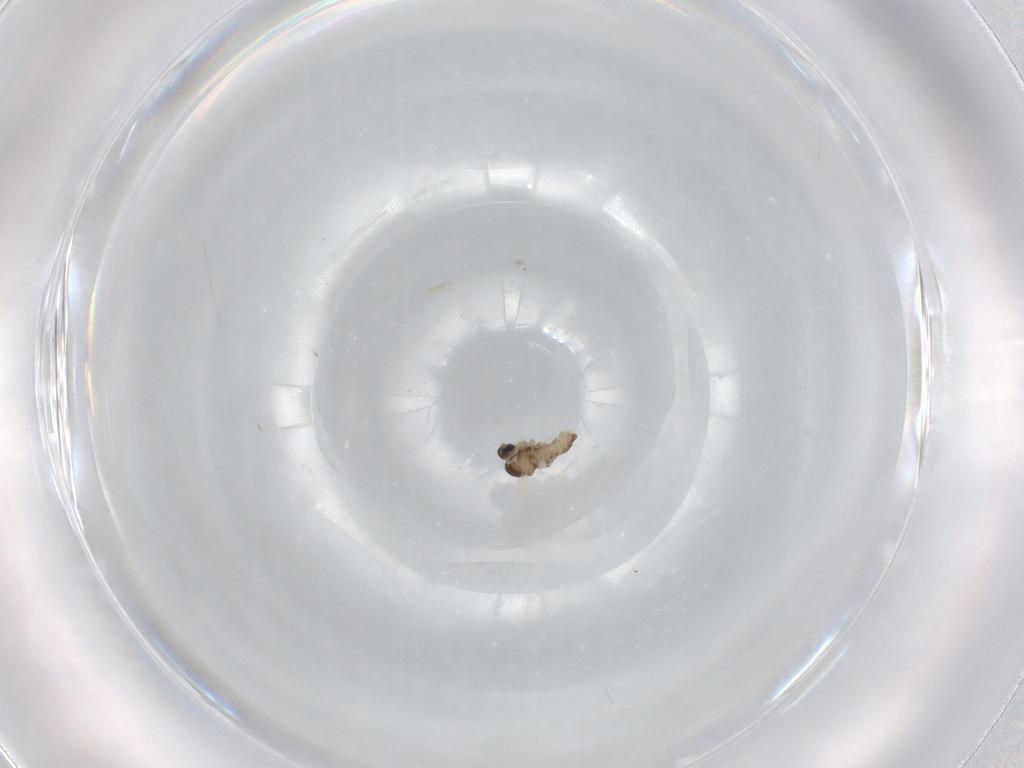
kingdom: Animalia
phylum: Arthropoda
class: Insecta
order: Diptera
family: Cecidomyiidae
